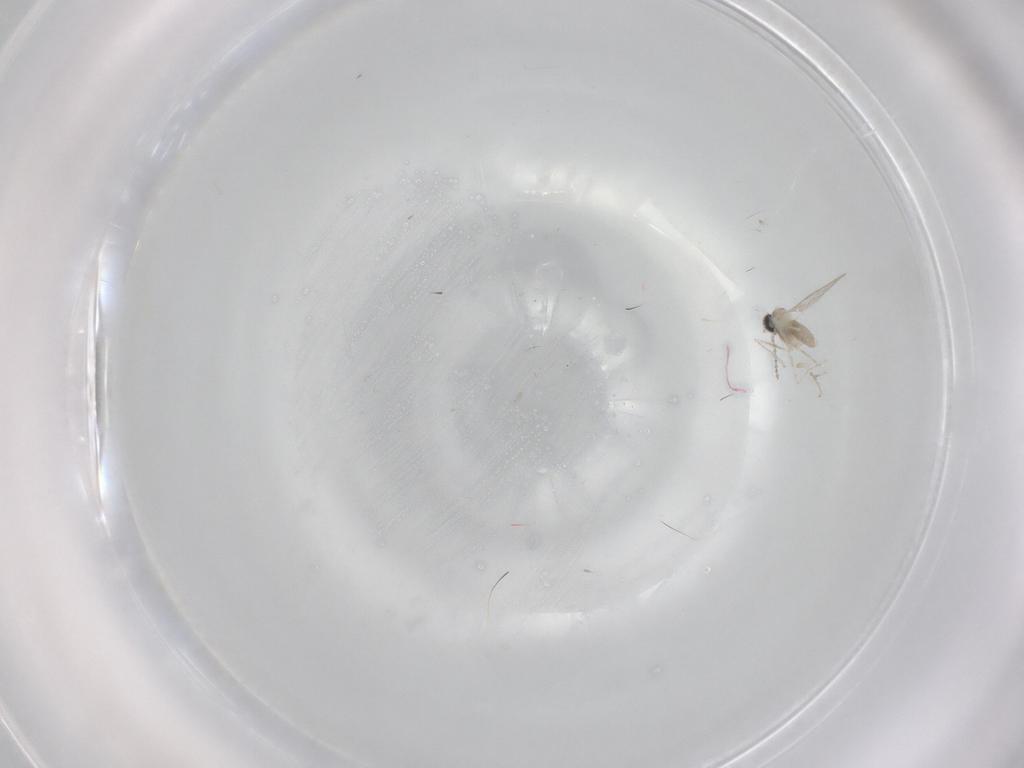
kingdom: Animalia
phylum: Arthropoda
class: Insecta
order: Diptera
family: Cecidomyiidae
